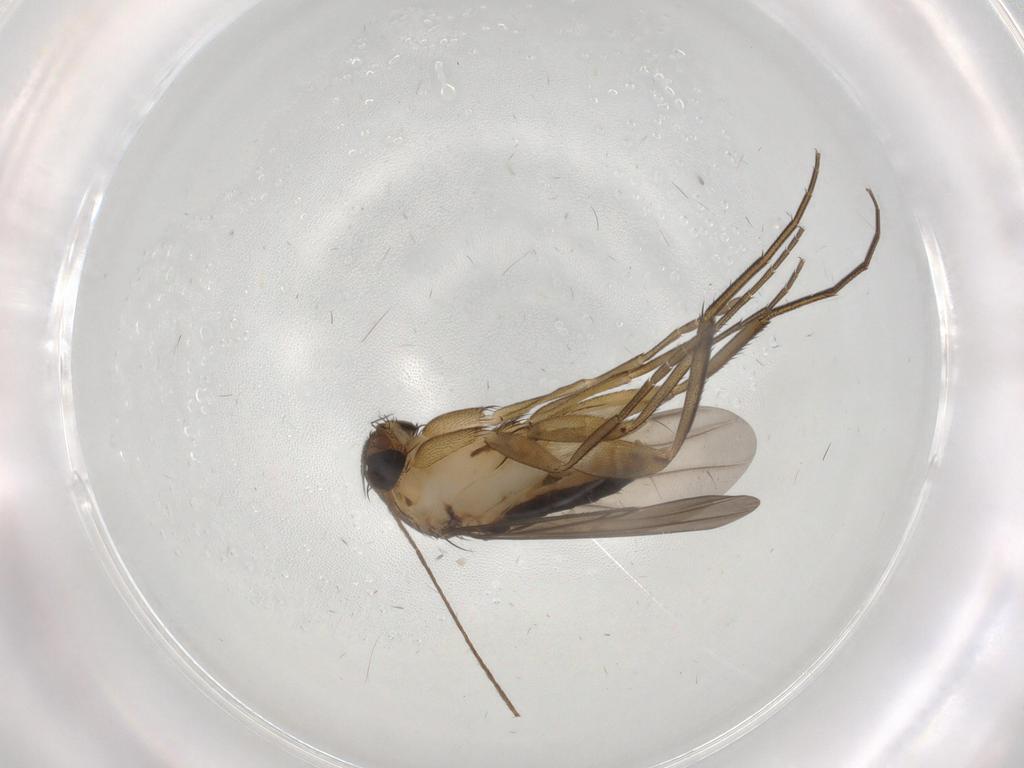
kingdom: Animalia
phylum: Arthropoda
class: Insecta
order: Diptera
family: Phoridae
